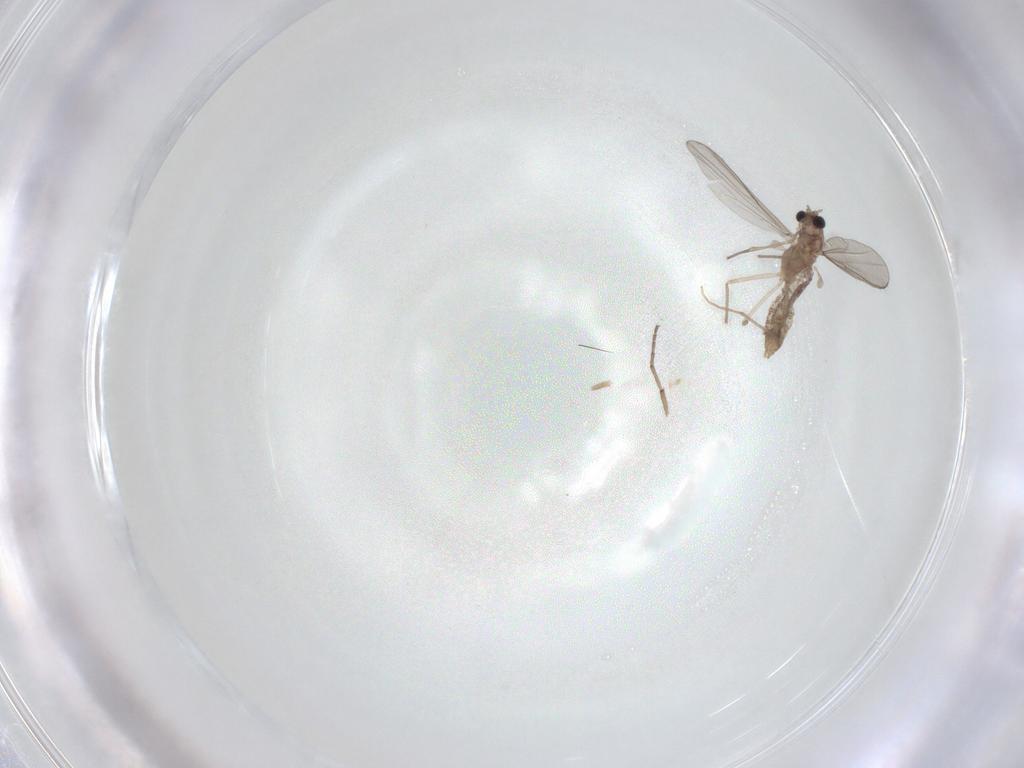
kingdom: Animalia
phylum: Arthropoda
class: Insecta
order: Diptera
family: Chironomidae
